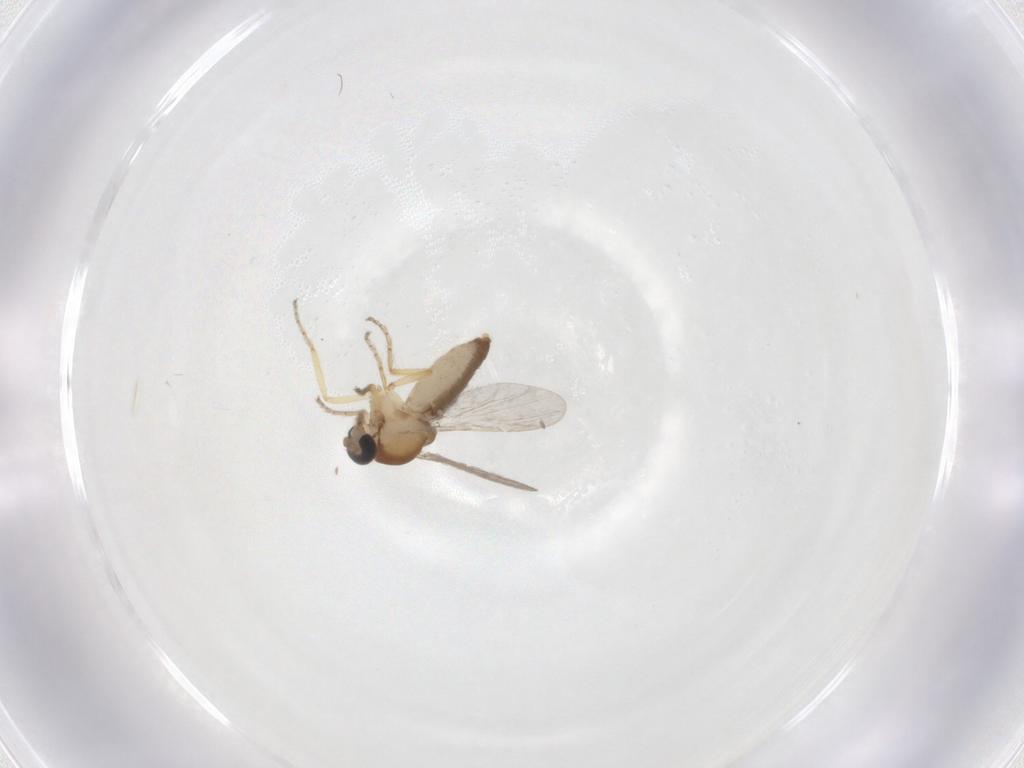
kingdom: Animalia
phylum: Arthropoda
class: Insecta
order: Diptera
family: Ceratopogonidae
